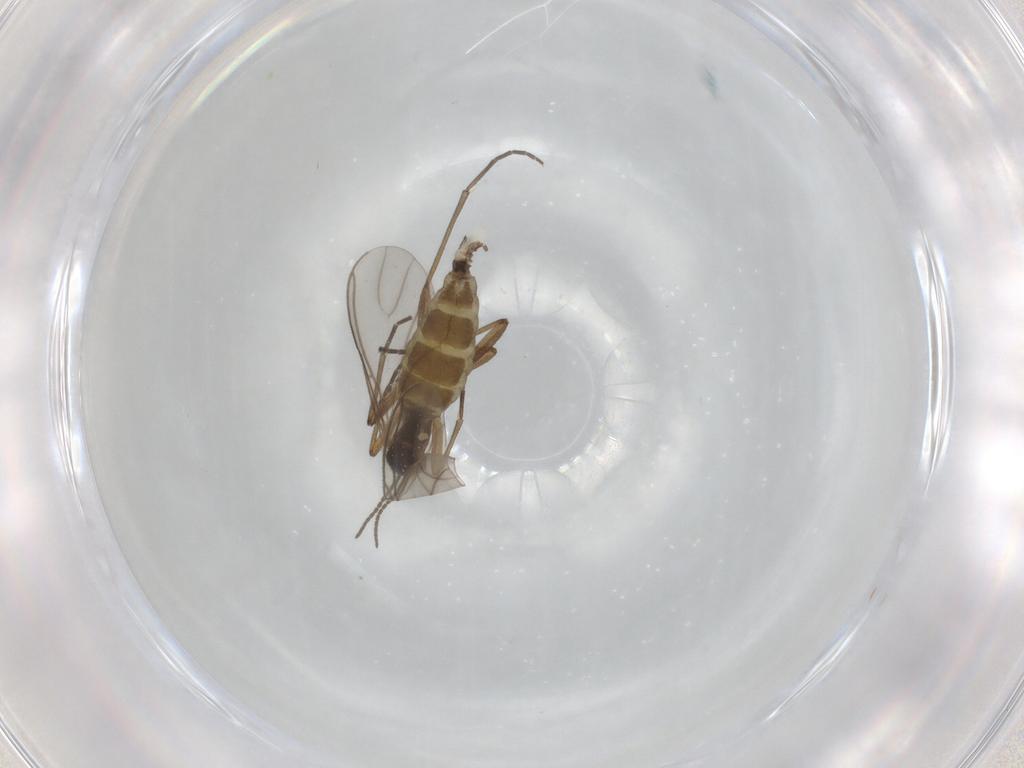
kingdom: Animalia
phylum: Arthropoda
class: Insecta
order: Diptera
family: Cecidomyiidae
